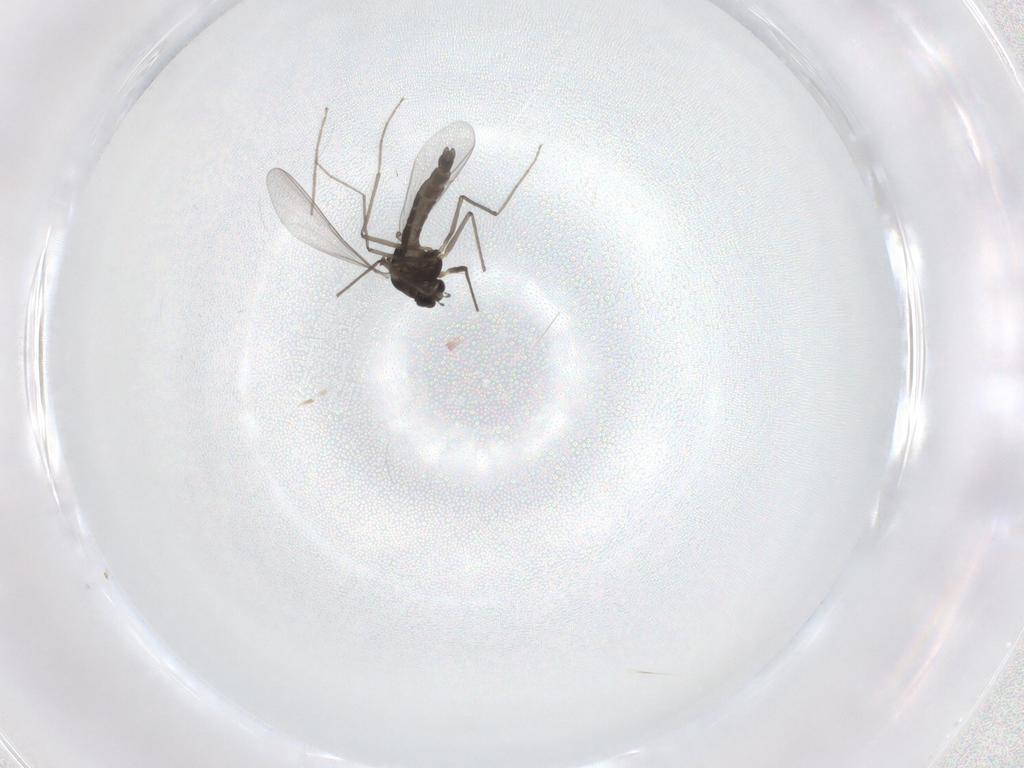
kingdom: Animalia
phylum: Arthropoda
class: Insecta
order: Diptera
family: Chironomidae
